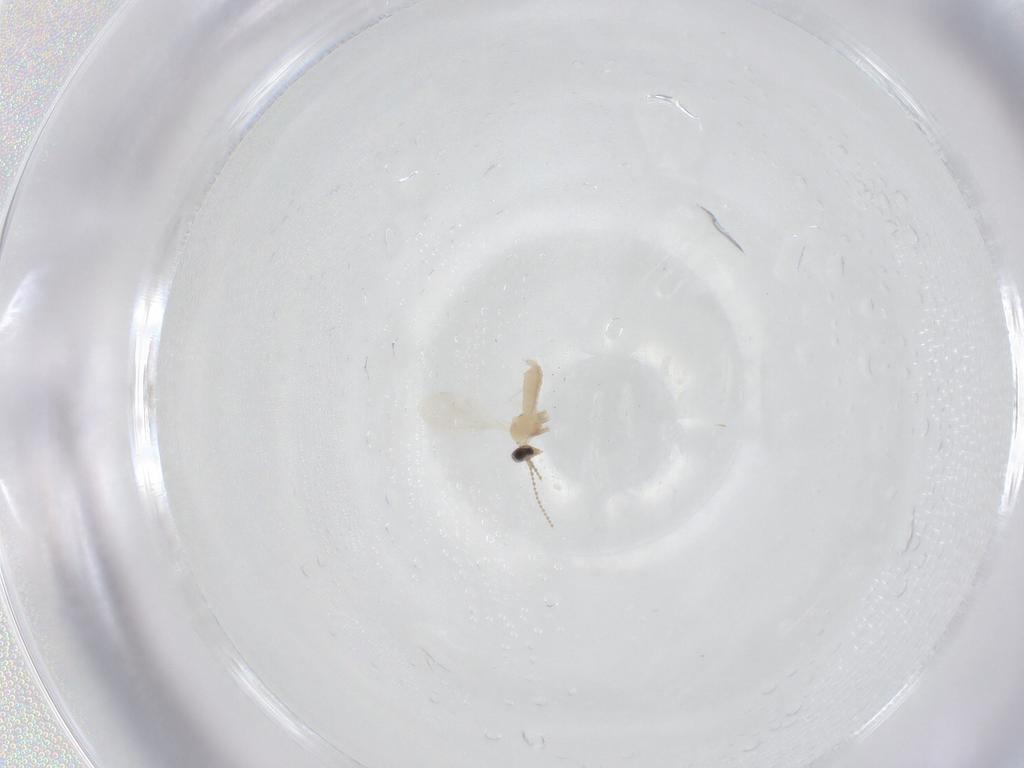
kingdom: Animalia
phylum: Arthropoda
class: Insecta
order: Diptera
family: Cecidomyiidae
